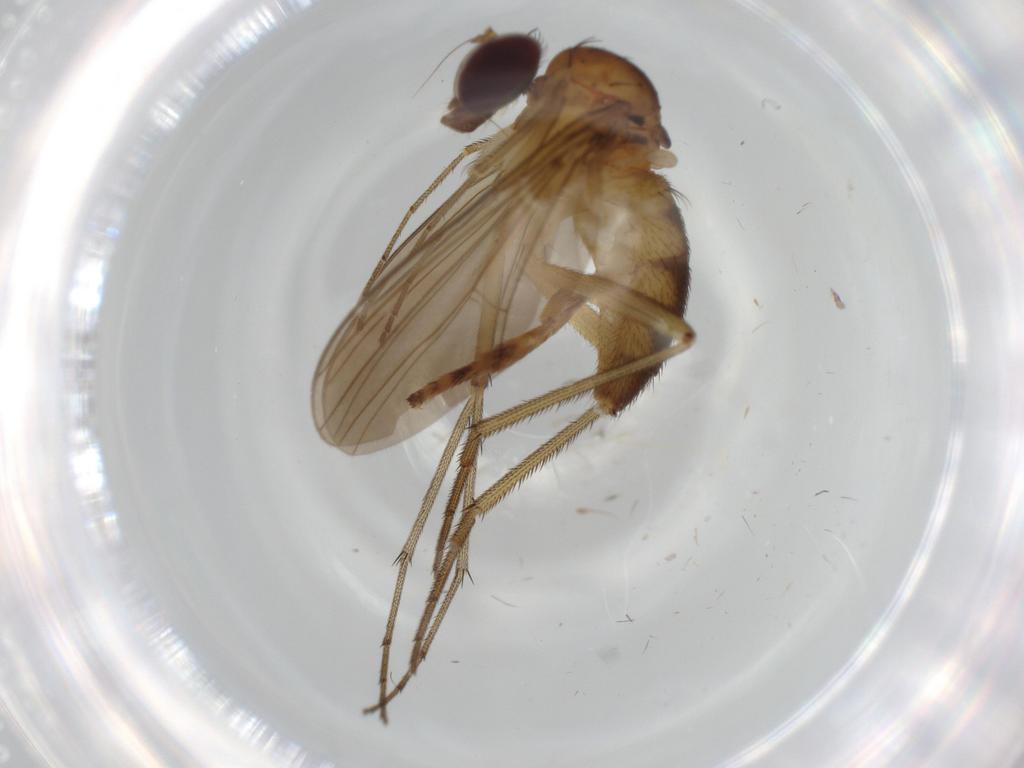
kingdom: Animalia
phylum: Arthropoda
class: Insecta
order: Diptera
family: Dolichopodidae
